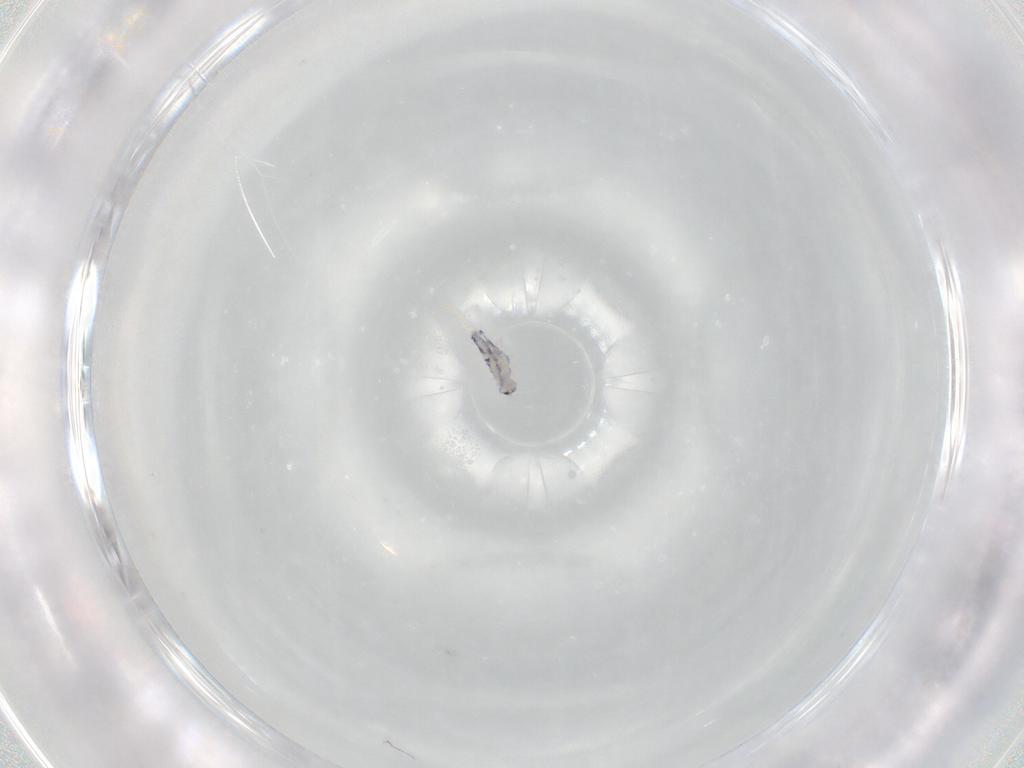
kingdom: Animalia
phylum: Arthropoda
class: Collembola
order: Entomobryomorpha
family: Entomobryidae
